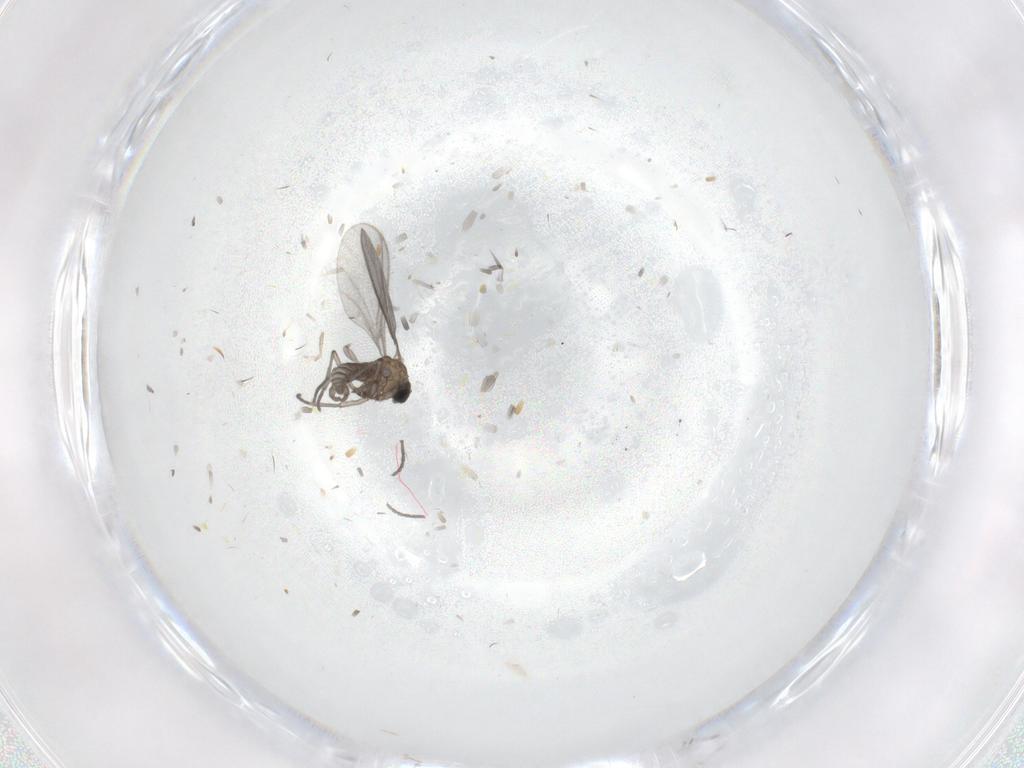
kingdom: Animalia
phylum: Arthropoda
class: Insecta
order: Diptera
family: Sciaridae
